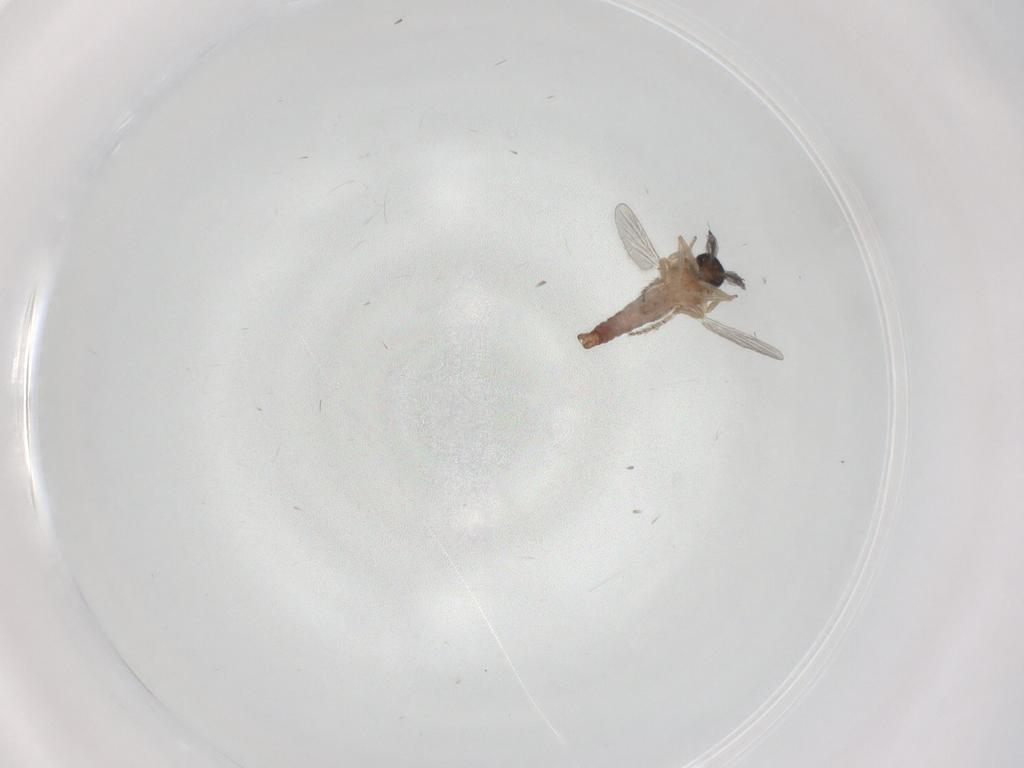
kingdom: Animalia
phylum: Arthropoda
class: Insecta
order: Diptera
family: Ceratopogonidae
